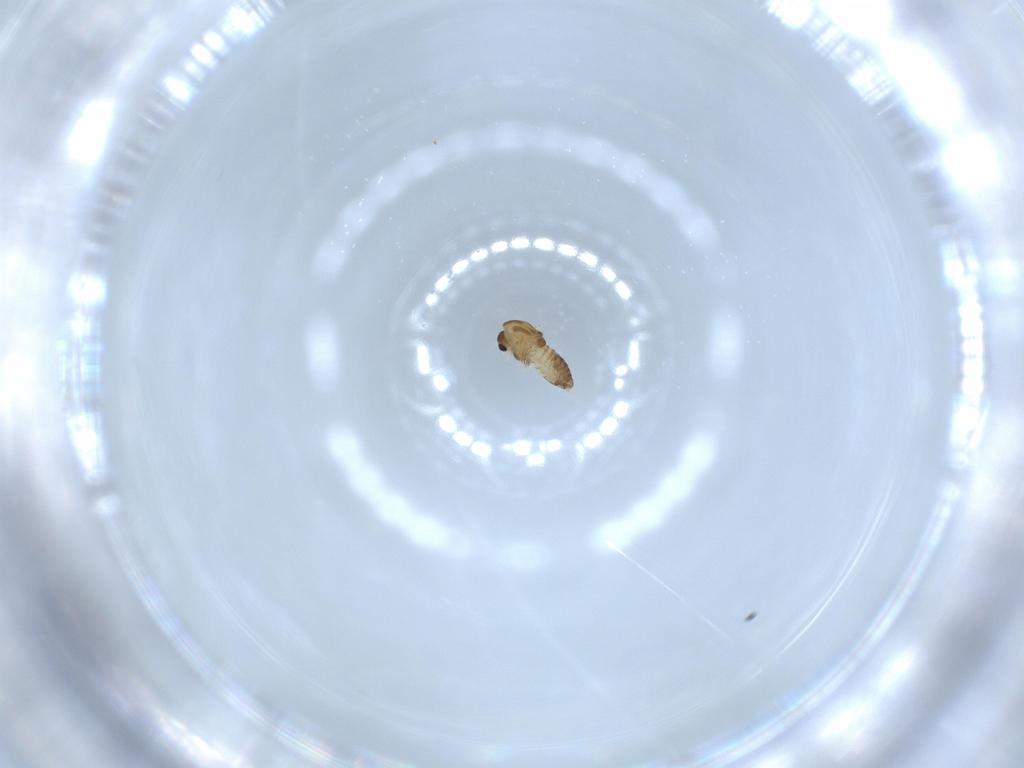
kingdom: Animalia
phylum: Arthropoda
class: Insecta
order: Diptera
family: Chironomidae
